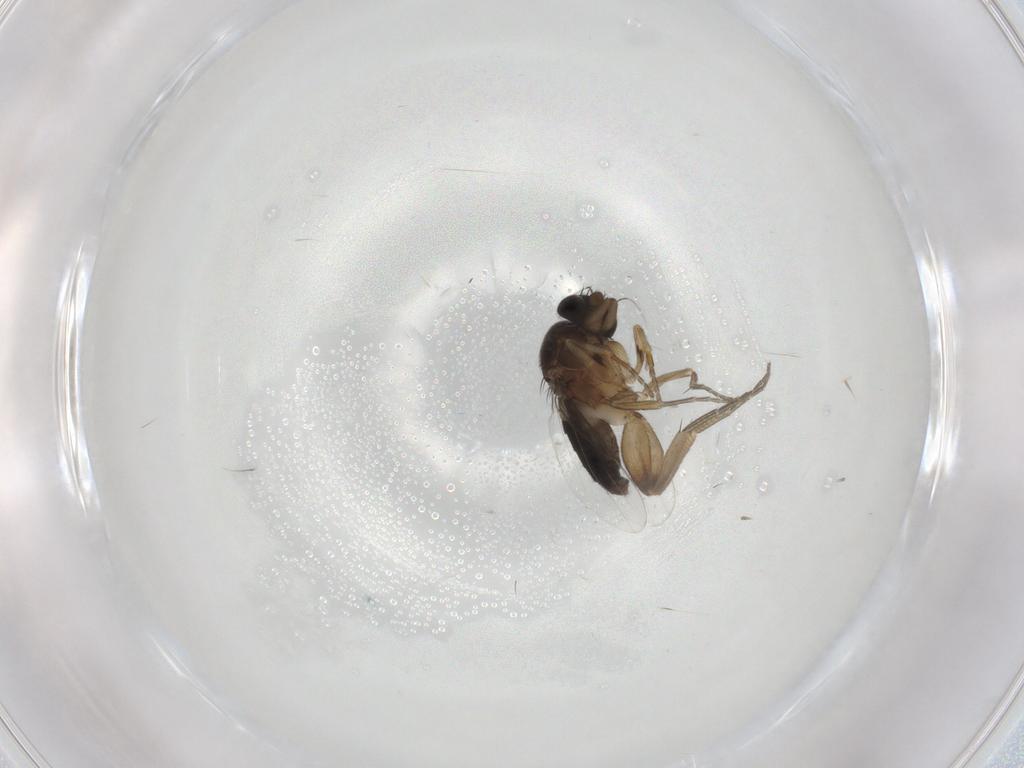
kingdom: Animalia
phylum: Arthropoda
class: Insecta
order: Diptera
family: Phoridae
